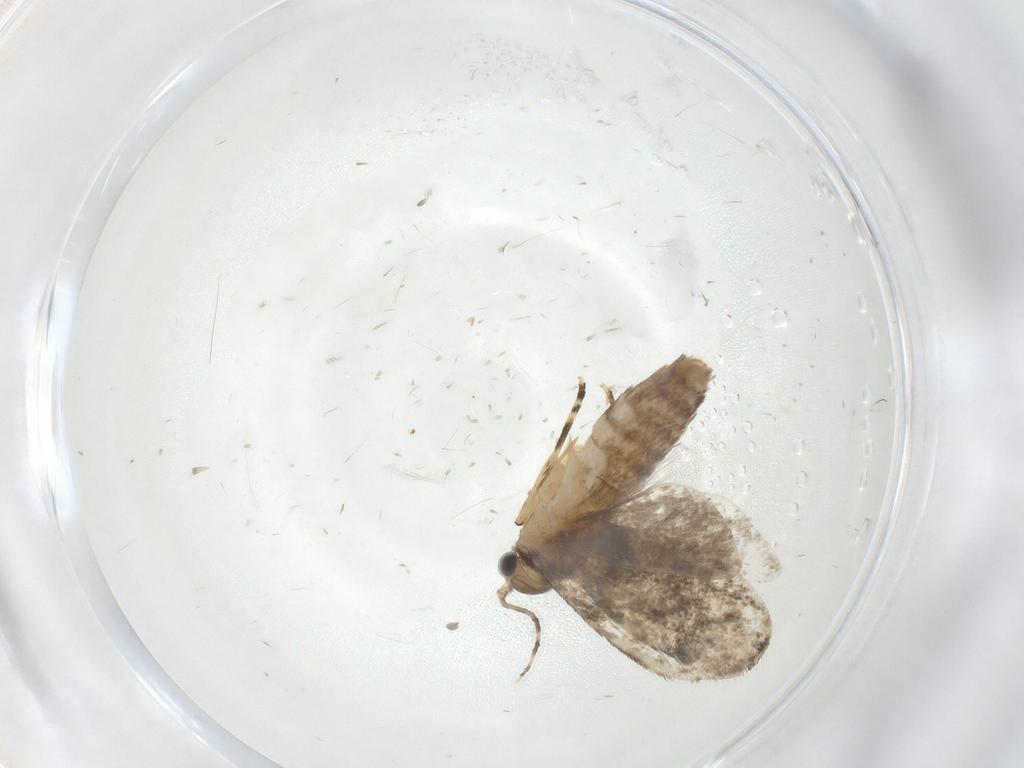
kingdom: Animalia
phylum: Arthropoda
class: Insecta
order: Lepidoptera
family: Tineidae
